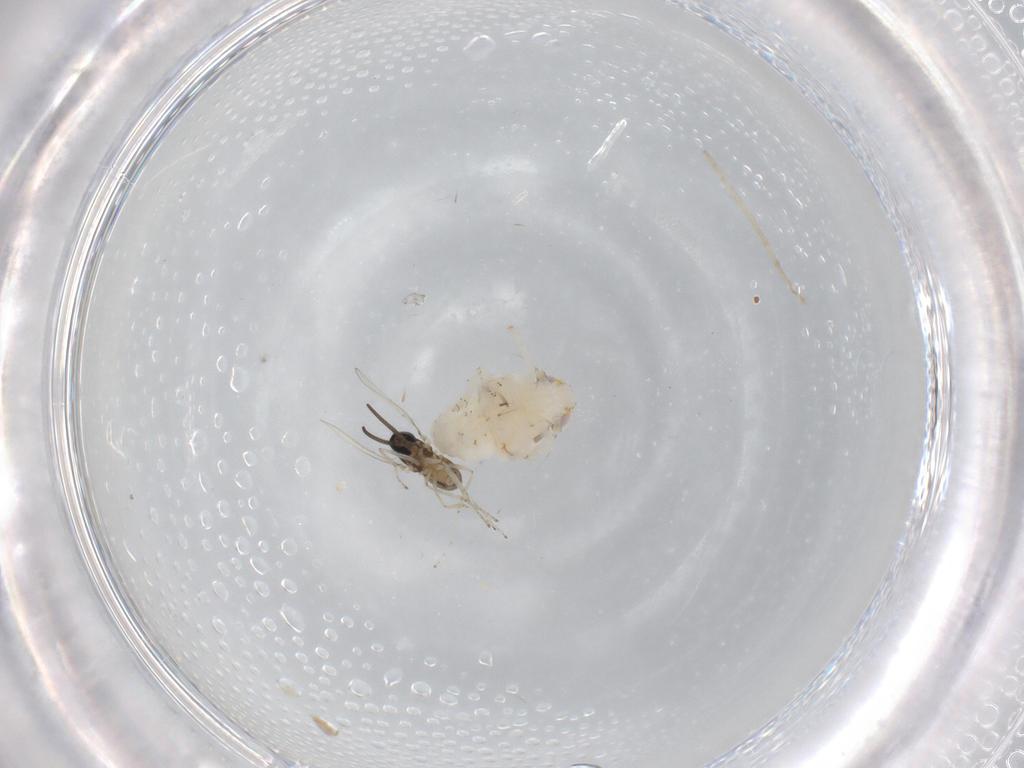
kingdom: Animalia
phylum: Arthropoda
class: Insecta
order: Diptera
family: Cecidomyiidae
